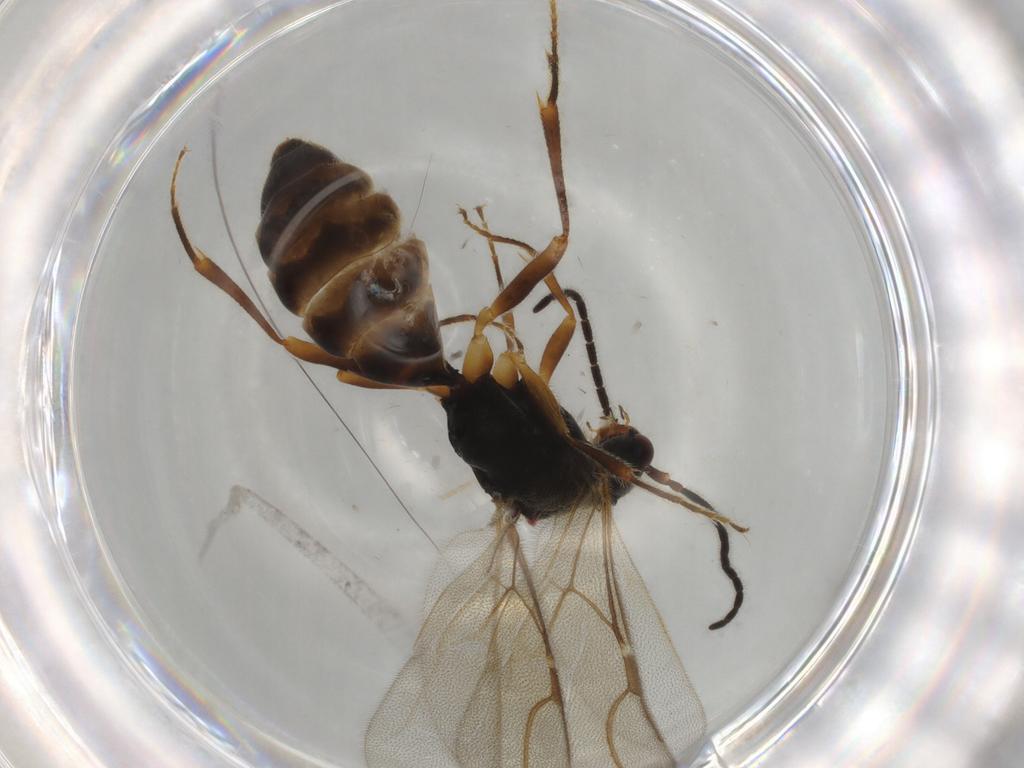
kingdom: Animalia
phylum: Arthropoda
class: Insecta
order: Hymenoptera
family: Bethylidae
